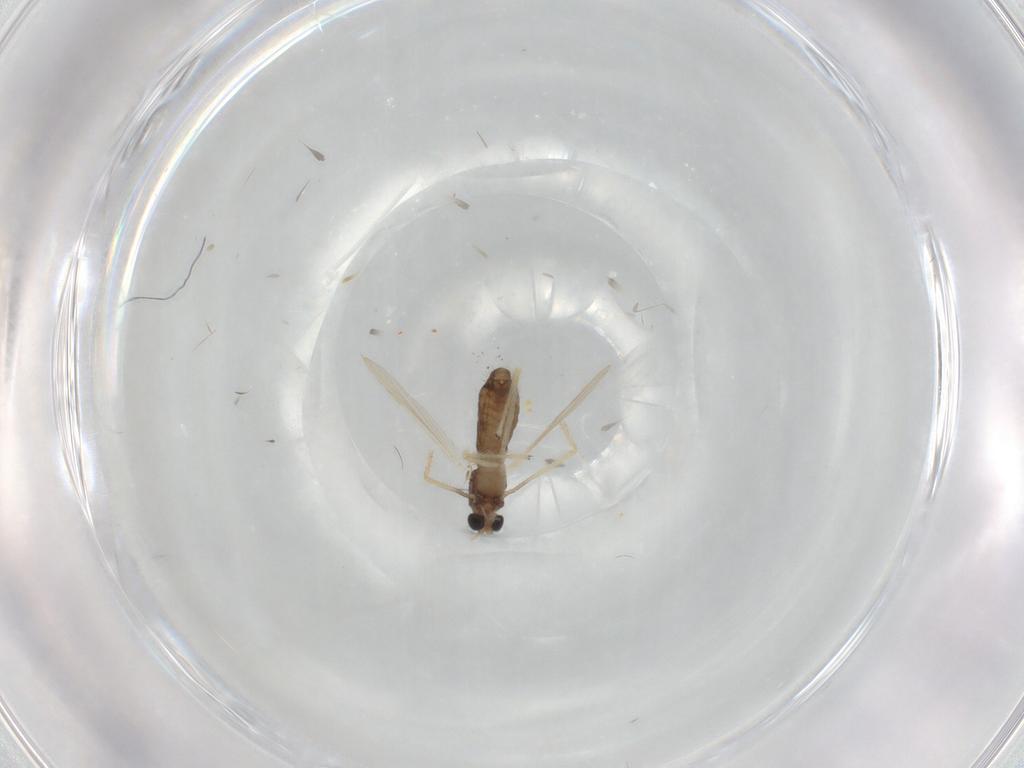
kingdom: Animalia
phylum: Arthropoda
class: Insecta
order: Diptera
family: Chironomidae
